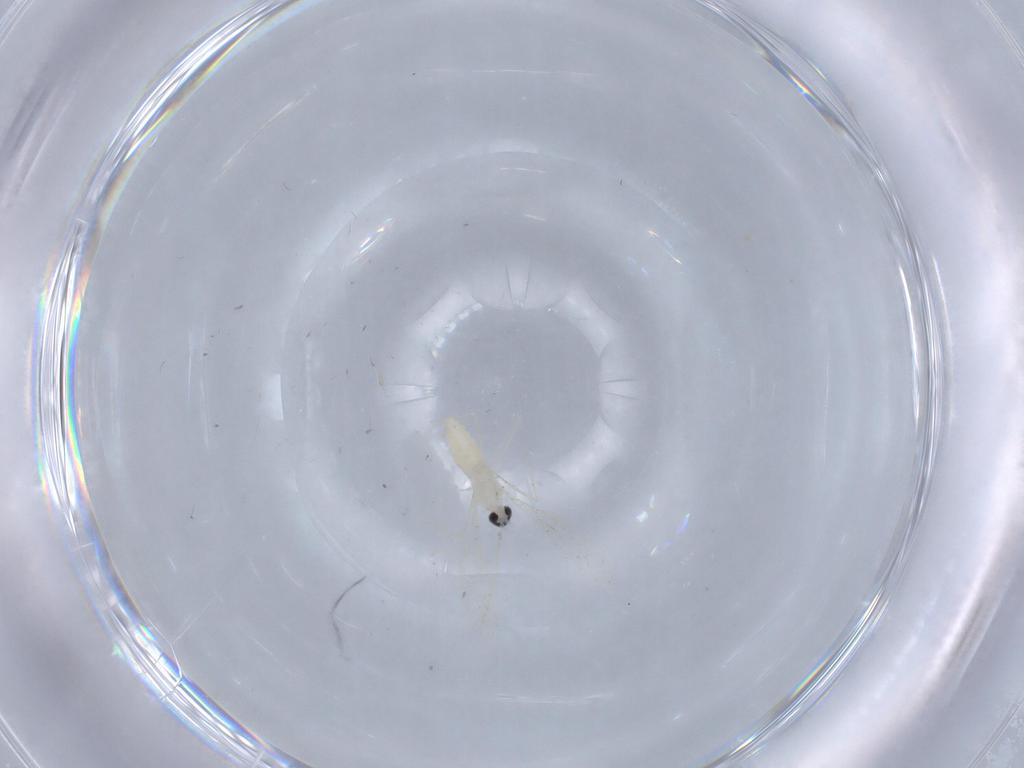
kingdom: Animalia
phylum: Arthropoda
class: Insecta
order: Diptera
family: Cecidomyiidae
